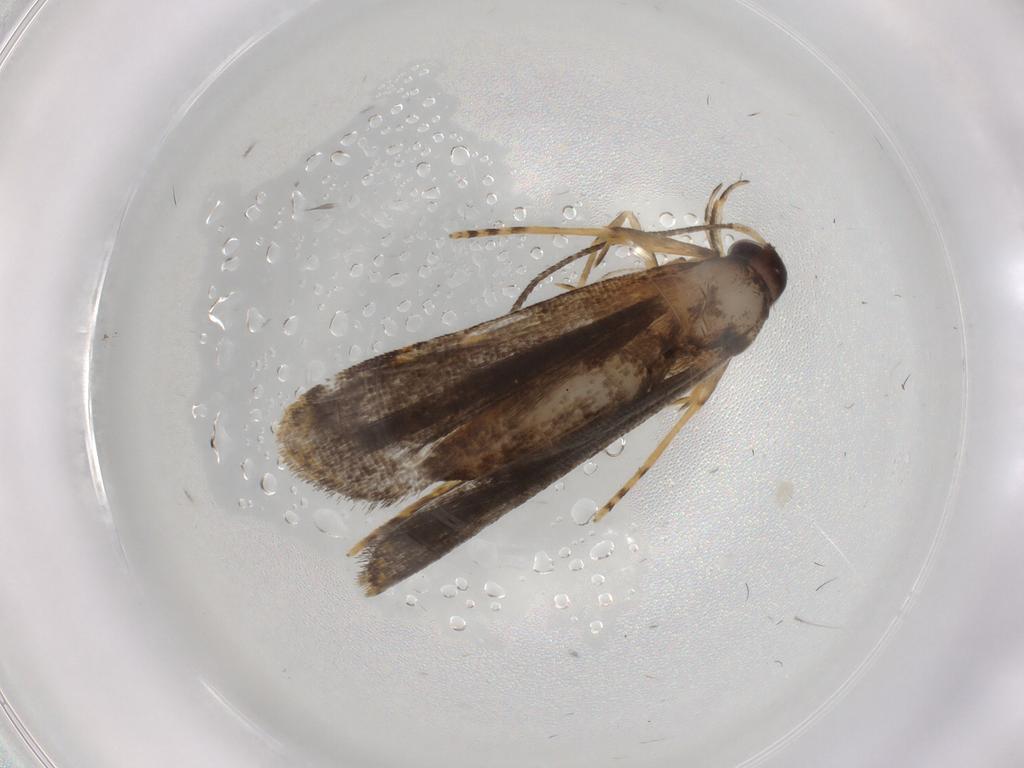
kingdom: Animalia
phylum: Arthropoda
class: Insecta
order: Lepidoptera
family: Cosmopterigidae
